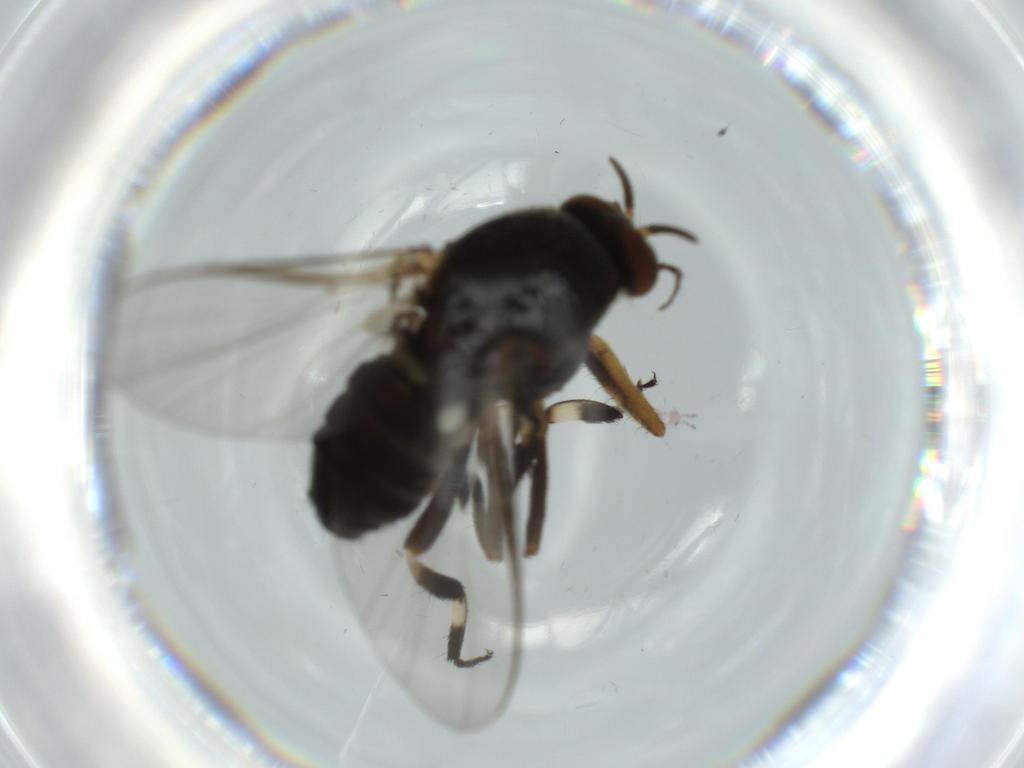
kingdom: Animalia
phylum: Arthropoda
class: Insecta
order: Diptera
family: Cecidomyiidae
